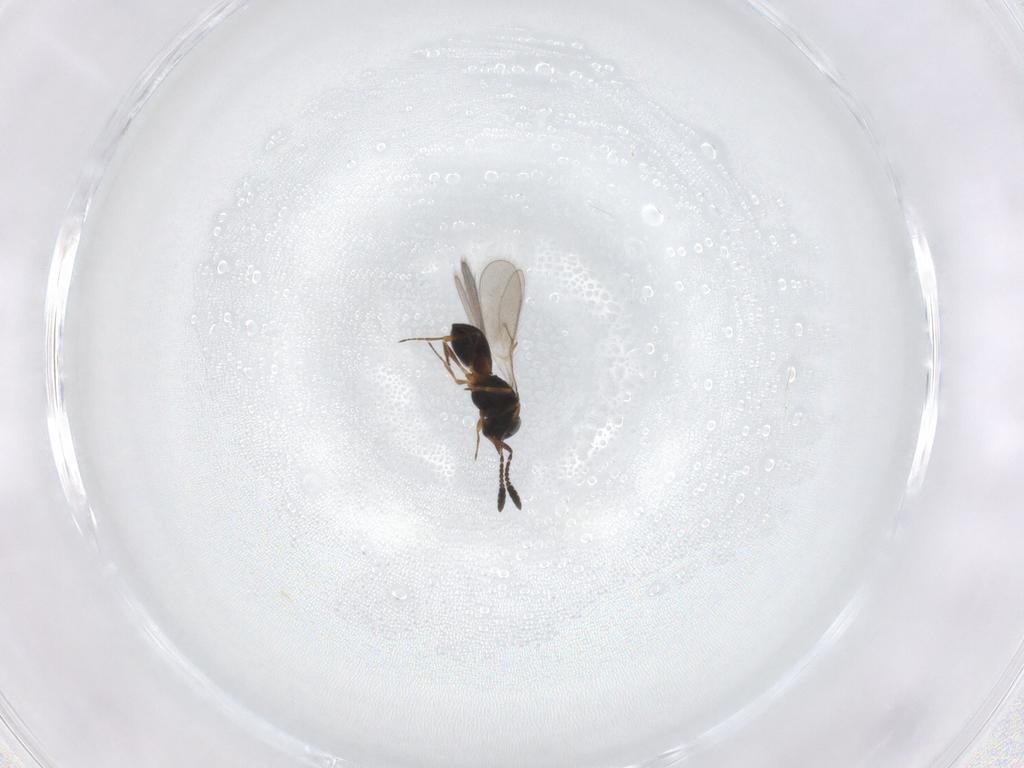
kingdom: Animalia
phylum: Arthropoda
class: Insecta
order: Hymenoptera
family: Scelionidae
